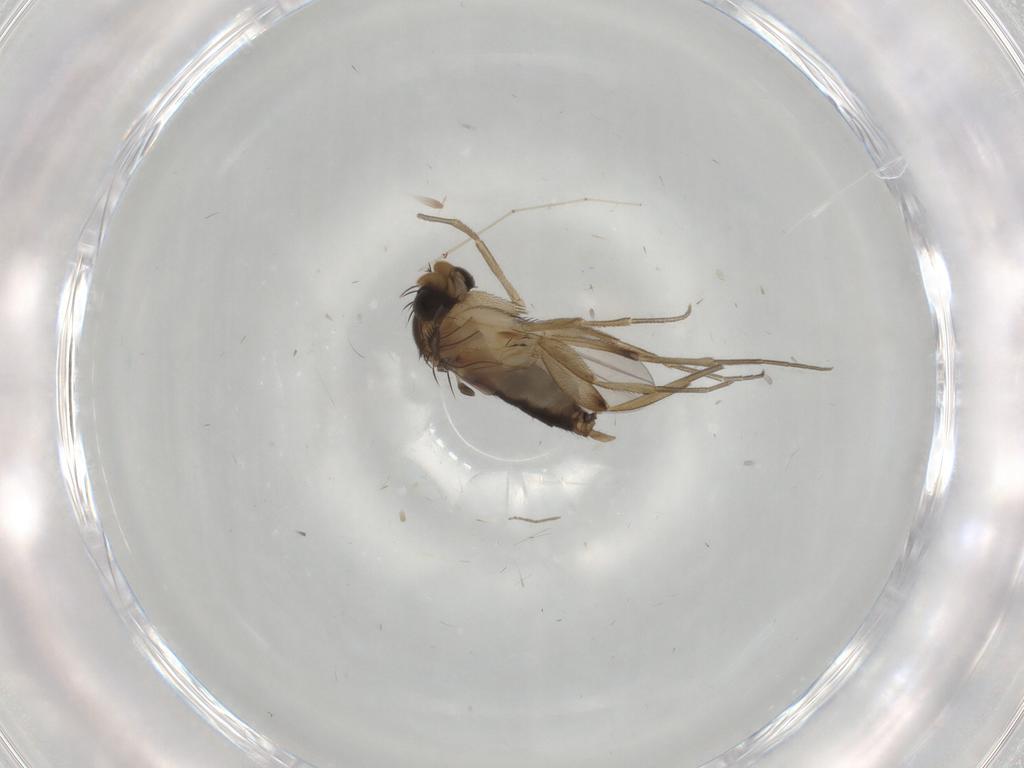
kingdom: Animalia
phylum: Arthropoda
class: Insecta
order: Diptera
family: Phoridae
